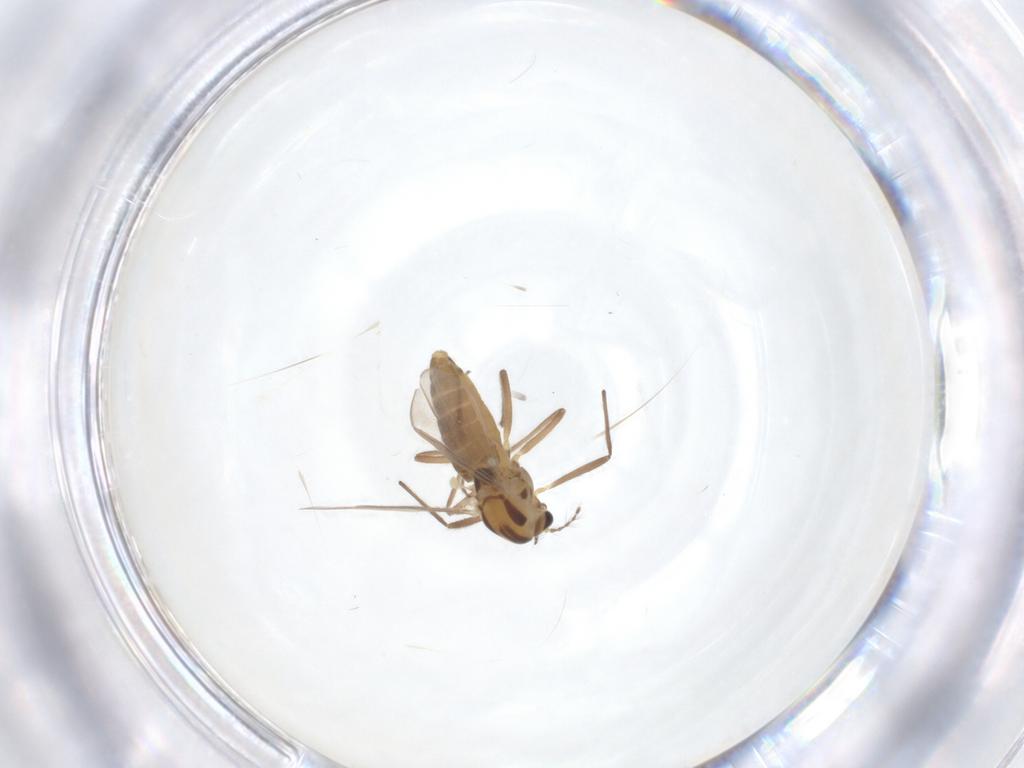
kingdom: Animalia
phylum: Arthropoda
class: Insecta
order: Diptera
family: Chironomidae
